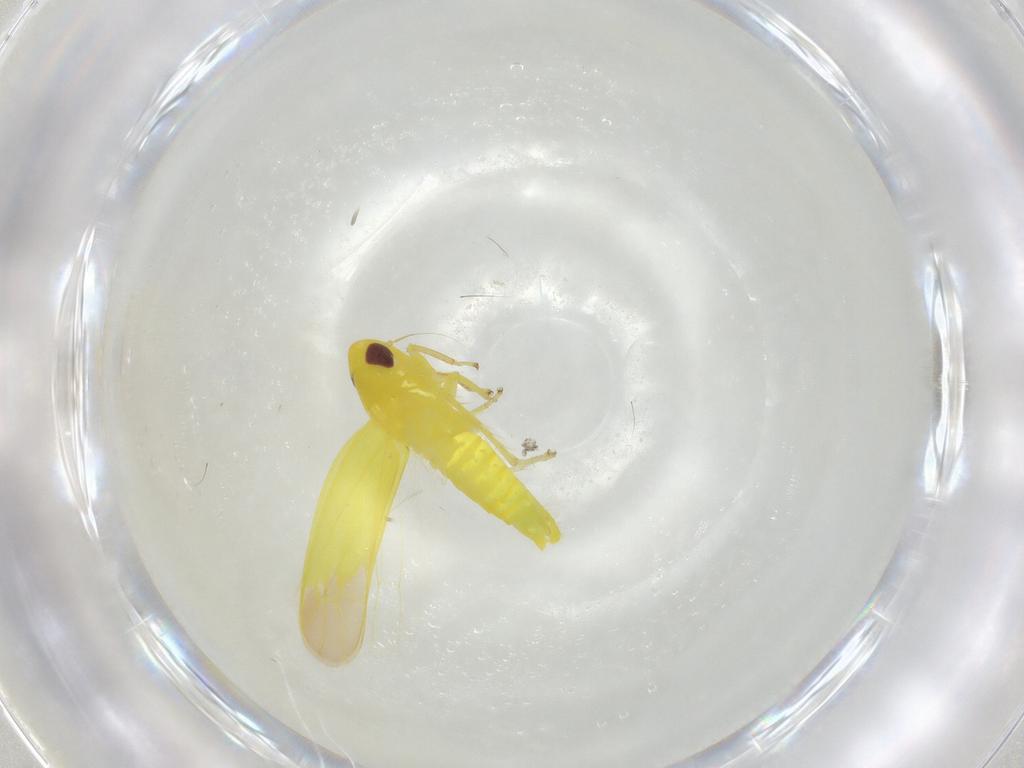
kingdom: Animalia
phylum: Arthropoda
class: Insecta
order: Hemiptera
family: Cicadellidae
